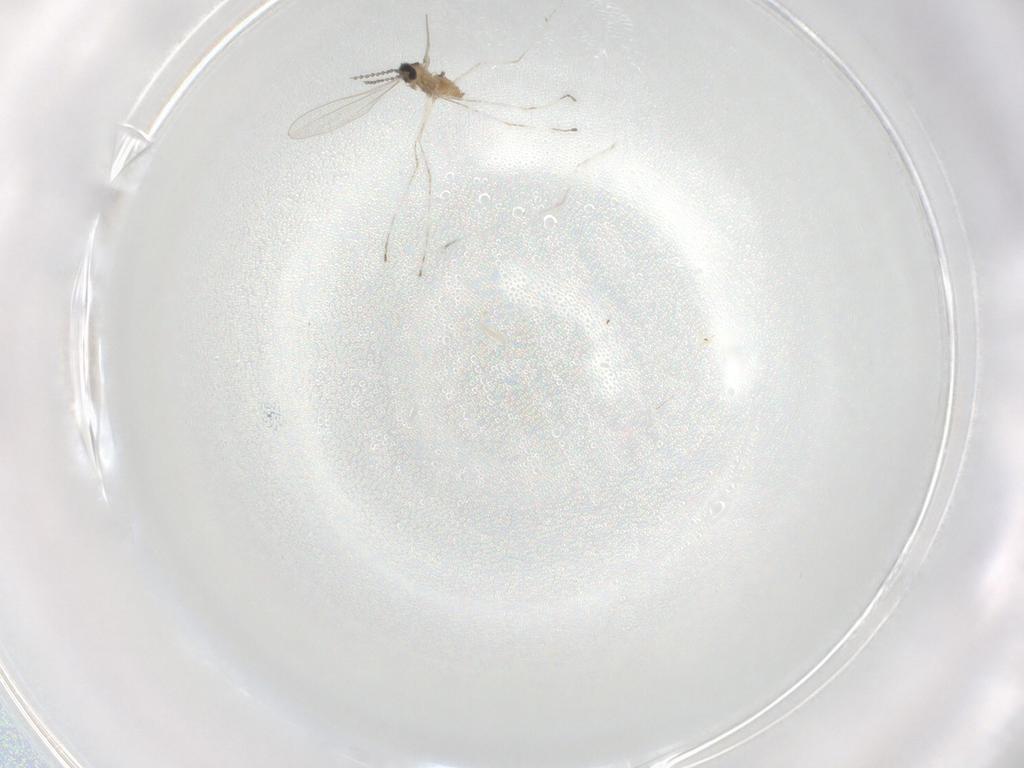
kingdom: Animalia
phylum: Arthropoda
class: Insecta
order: Diptera
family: Cecidomyiidae
